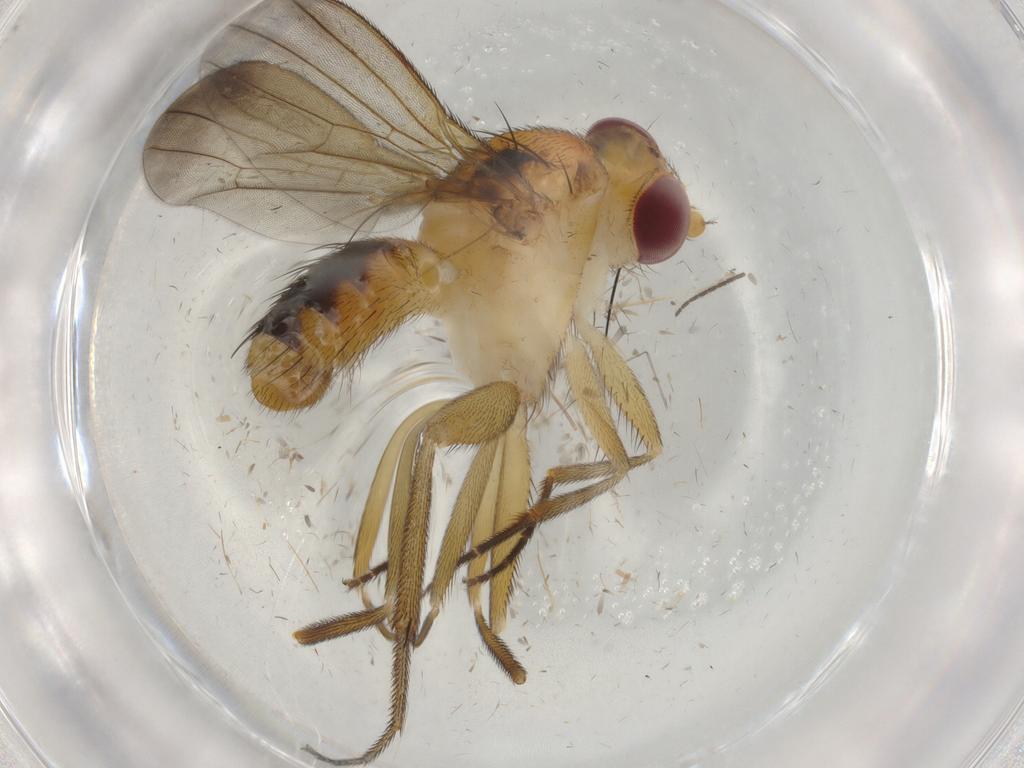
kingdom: Animalia
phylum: Arthropoda
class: Insecta
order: Diptera
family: Clusiidae
